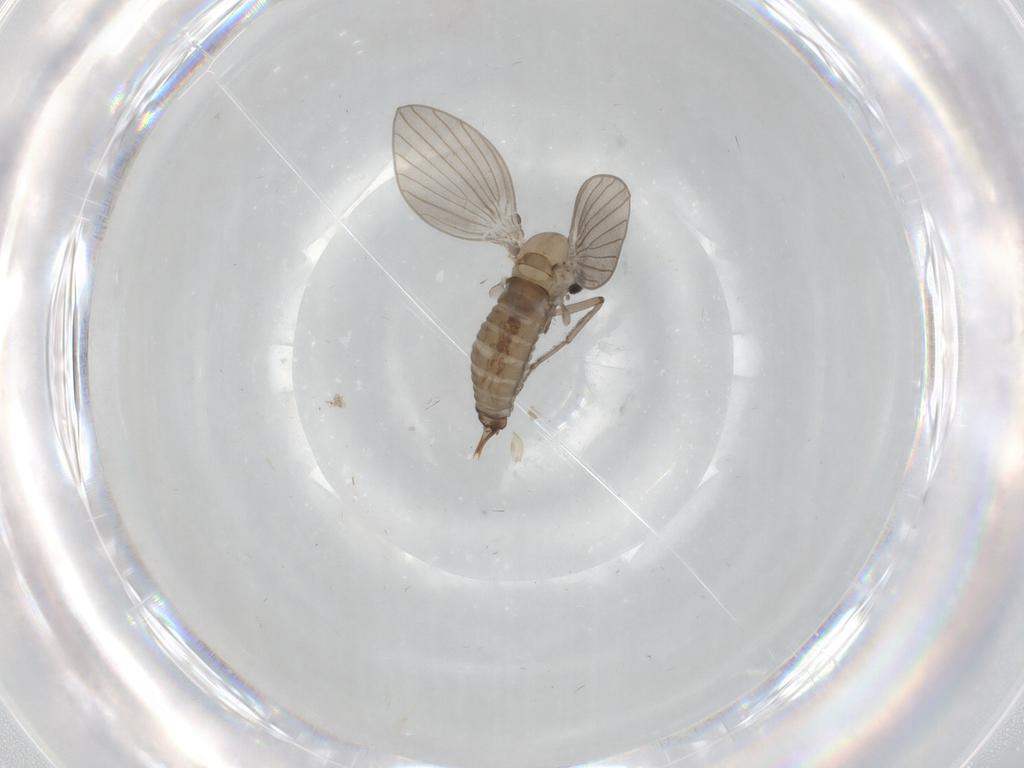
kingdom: Animalia
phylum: Arthropoda
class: Insecta
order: Diptera
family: Psychodidae
